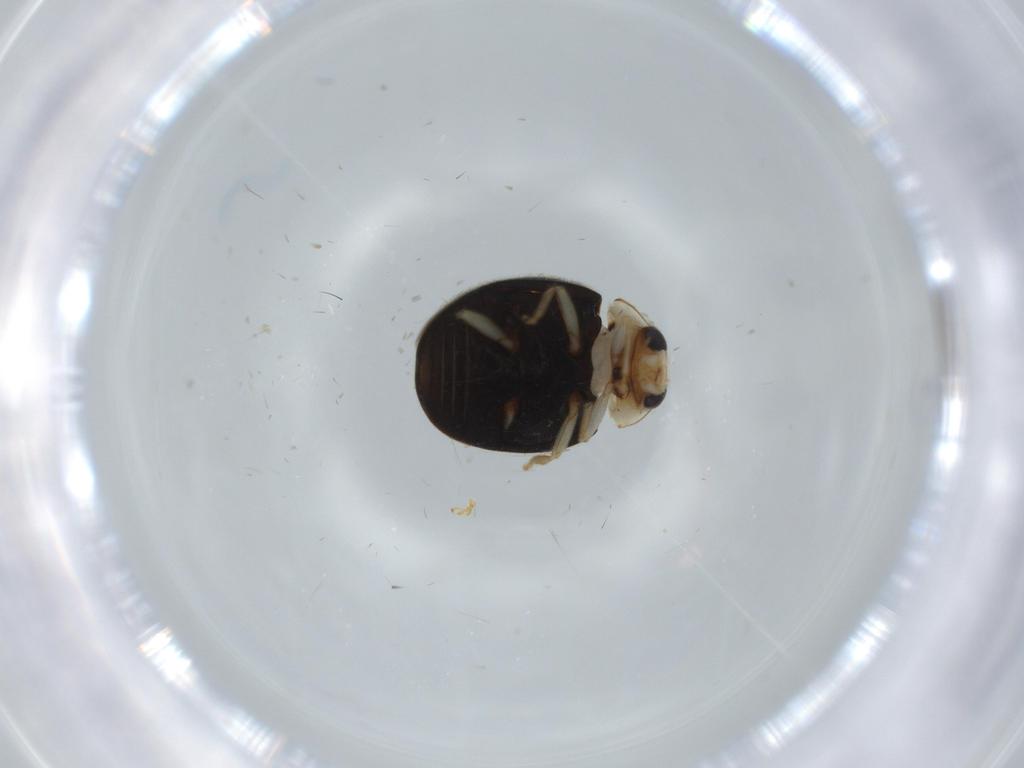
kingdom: Animalia
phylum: Arthropoda
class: Insecta
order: Coleoptera
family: Coccinellidae
